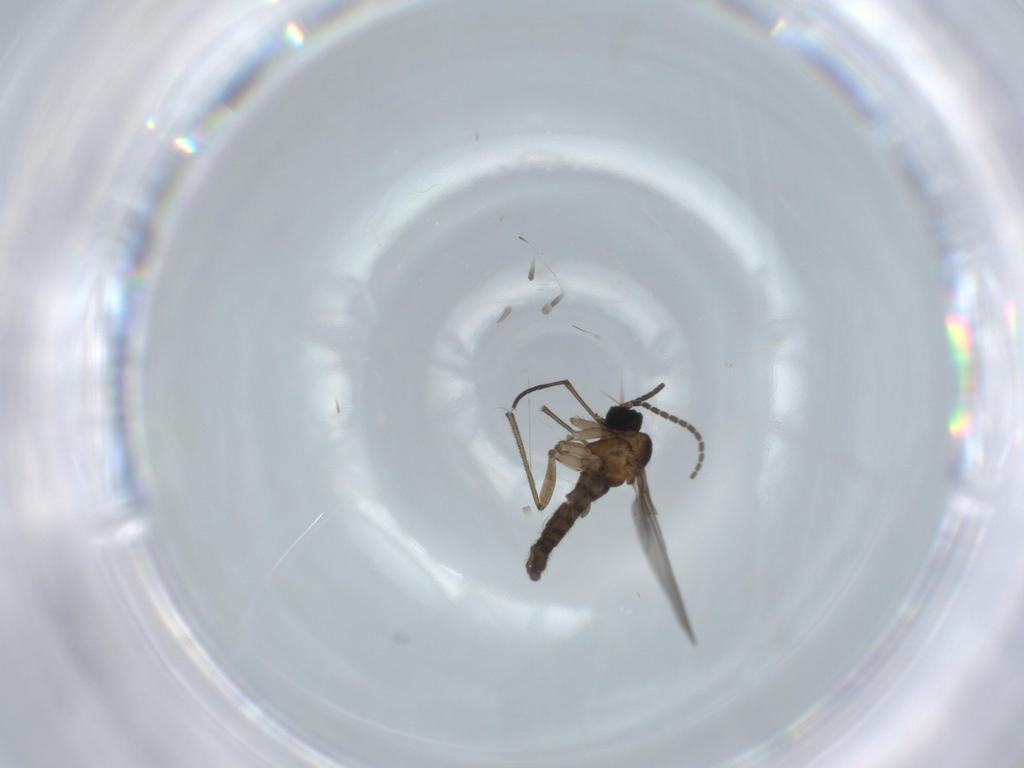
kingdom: Animalia
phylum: Arthropoda
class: Insecta
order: Diptera
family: Sciaridae
